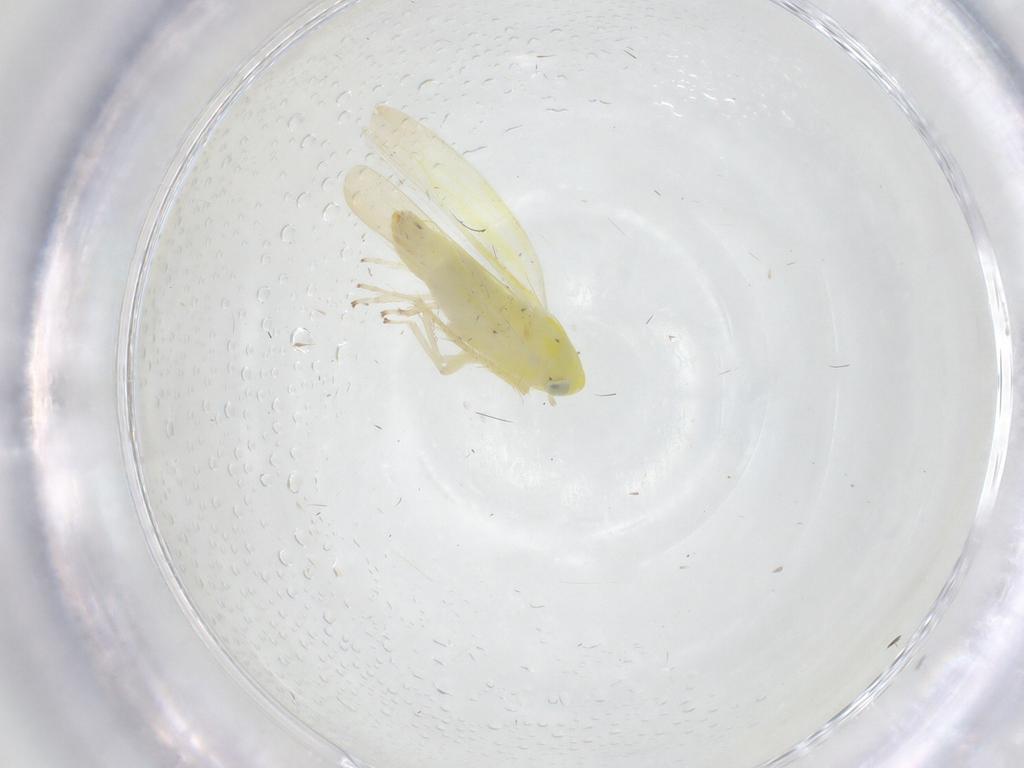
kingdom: Animalia
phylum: Arthropoda
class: Insecta
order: Hemiptera
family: Cicadellidae
